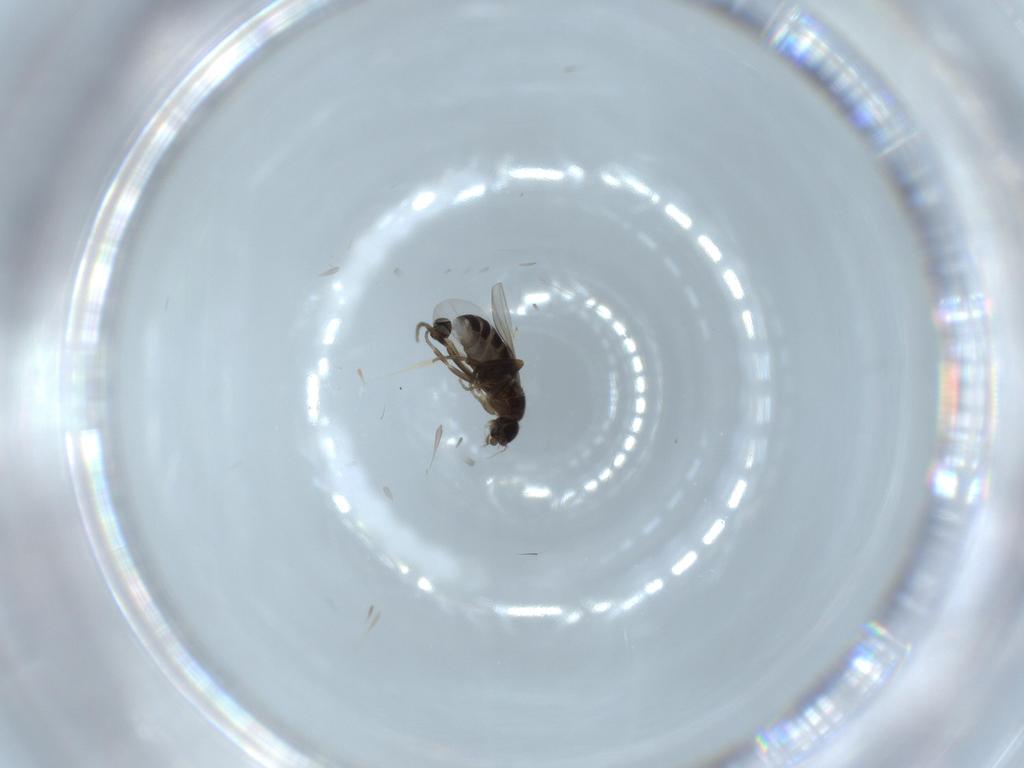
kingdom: Animalia
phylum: Arthropoda
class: Insecta
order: Diptera
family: Phoridae
